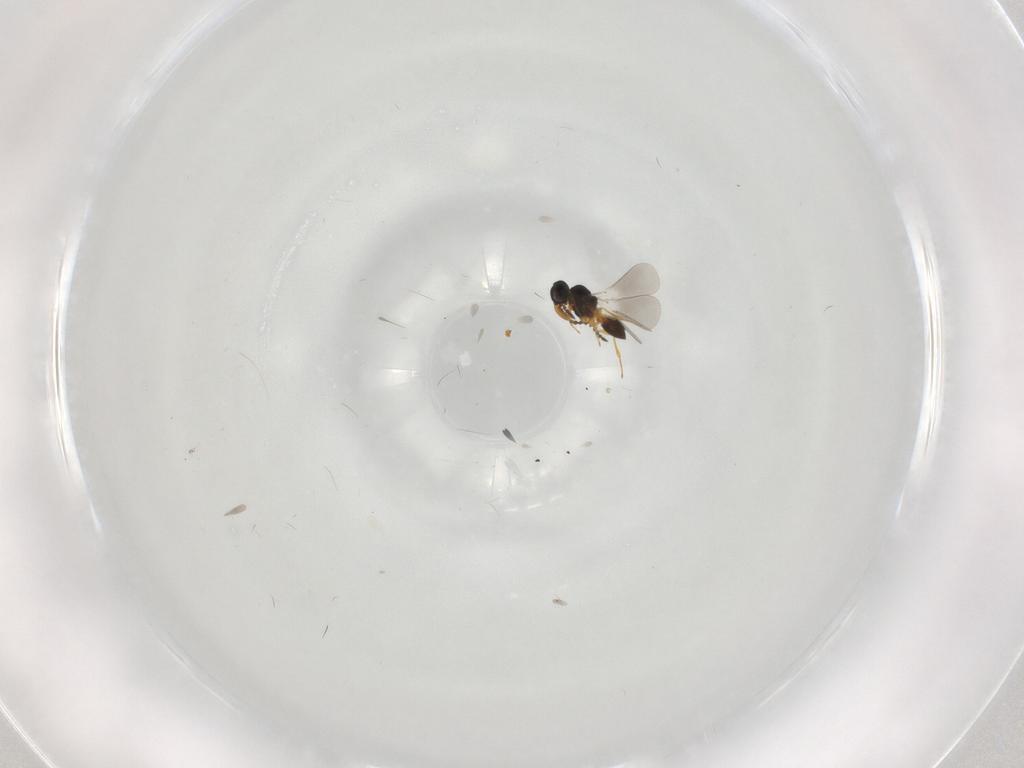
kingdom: Animalia
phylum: Arthropoda
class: Insecta
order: Hymenoptera
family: Platygastridae
